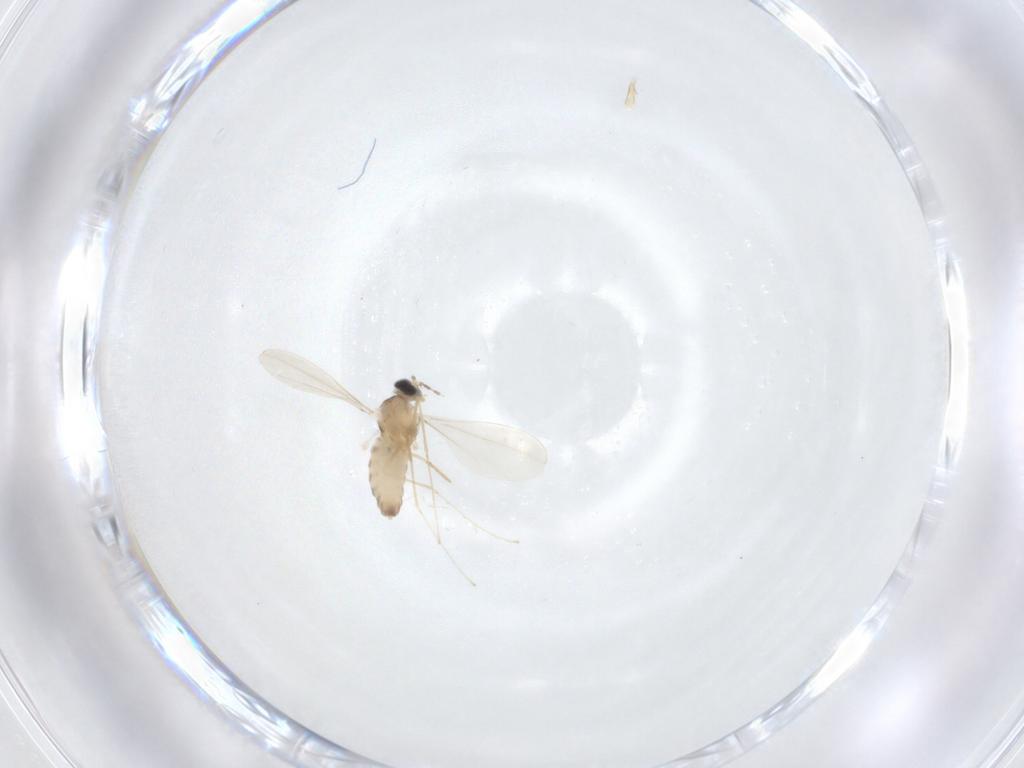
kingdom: Animalia
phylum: Arthropoda
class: Insecta
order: Diptera
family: Cecidomyiidae
